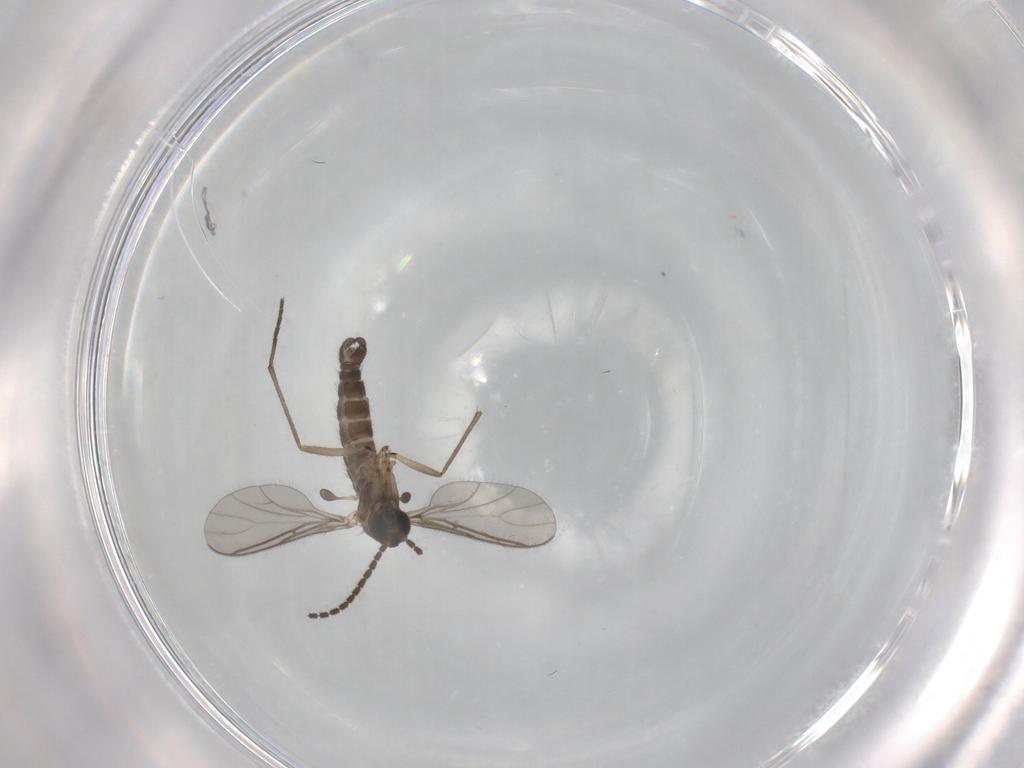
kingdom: Animalia
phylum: Arthropoda
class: Insecta
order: Diptera
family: Sciaridae
